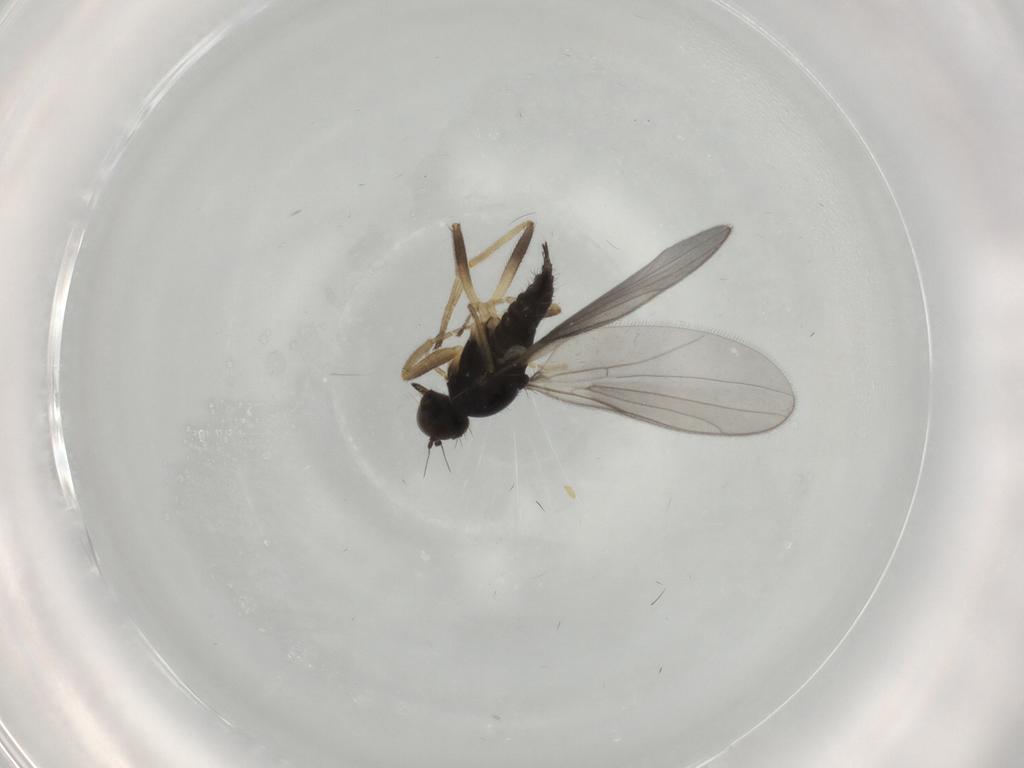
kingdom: Animalia
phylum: Arthropoda
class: Insecta
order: Diptera
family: Hybotidae
